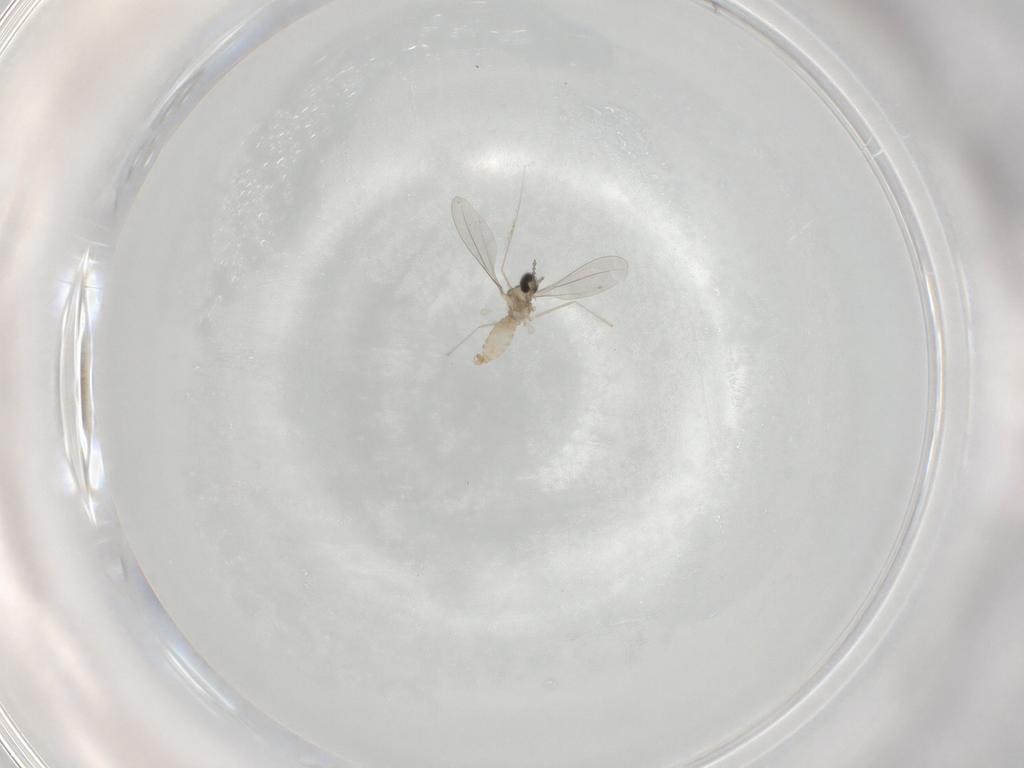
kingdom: Animalia
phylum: Arthropoda
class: Insecta
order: Diptera
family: Cecidomyiidae
